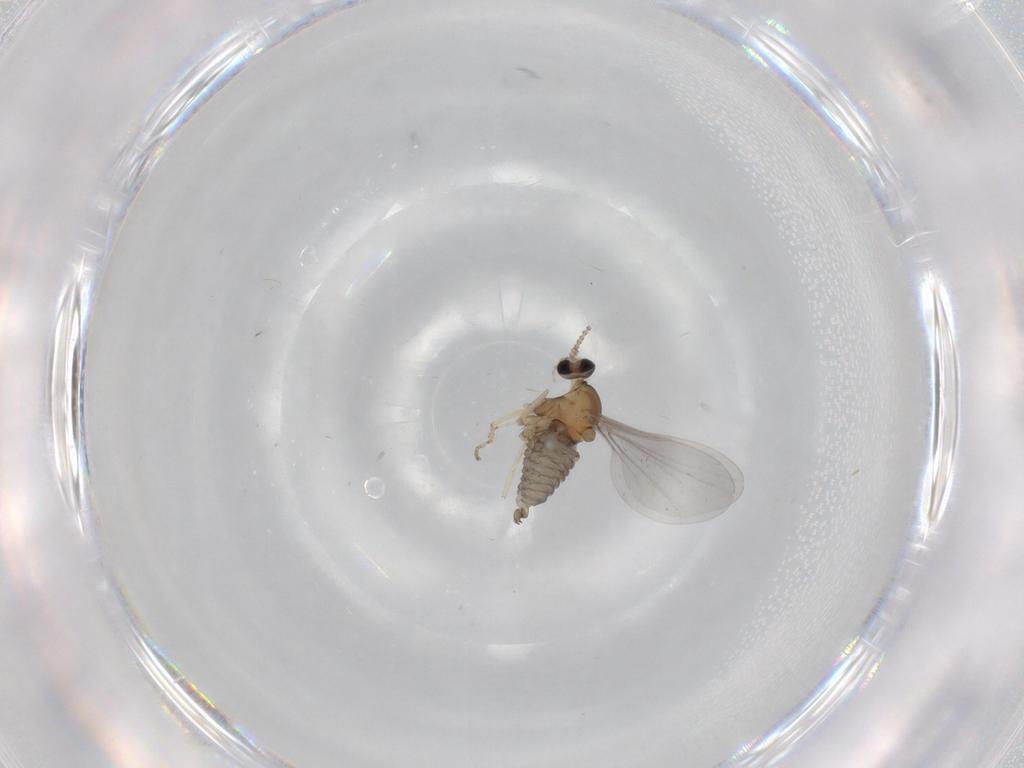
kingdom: Animalia
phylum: Arthropoda
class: Insecta
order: Diptera
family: Cecidomyiidae
